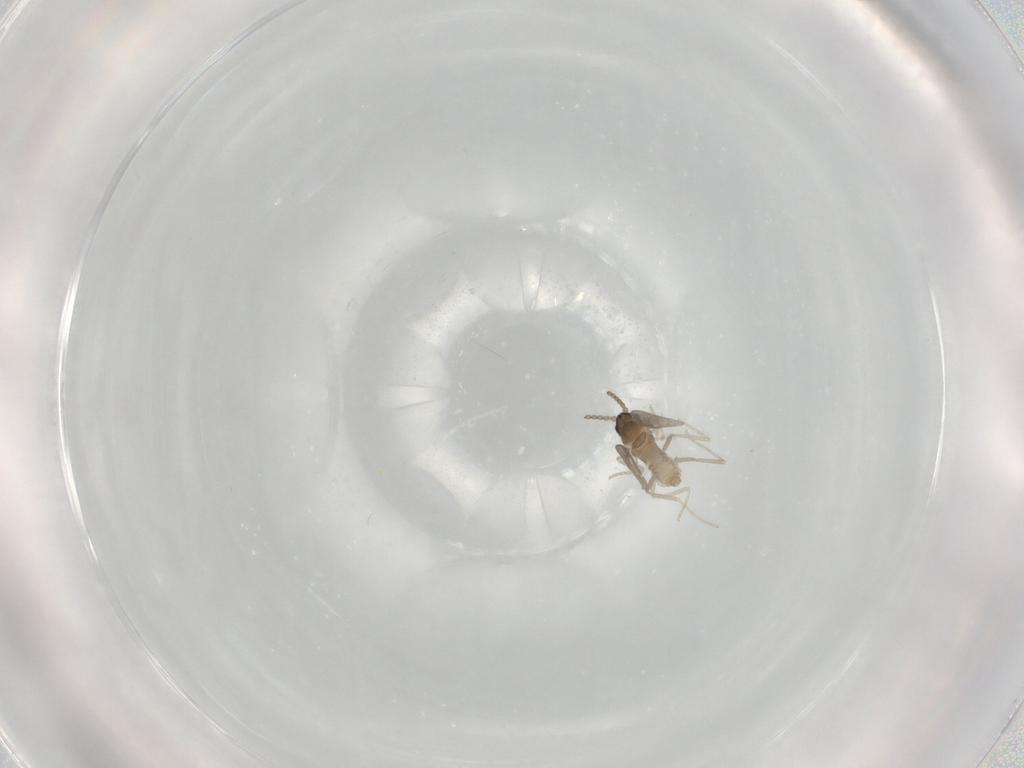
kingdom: Animalia
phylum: Arthropoda
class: Insecta
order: Diptera
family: Cecidomyiidae
